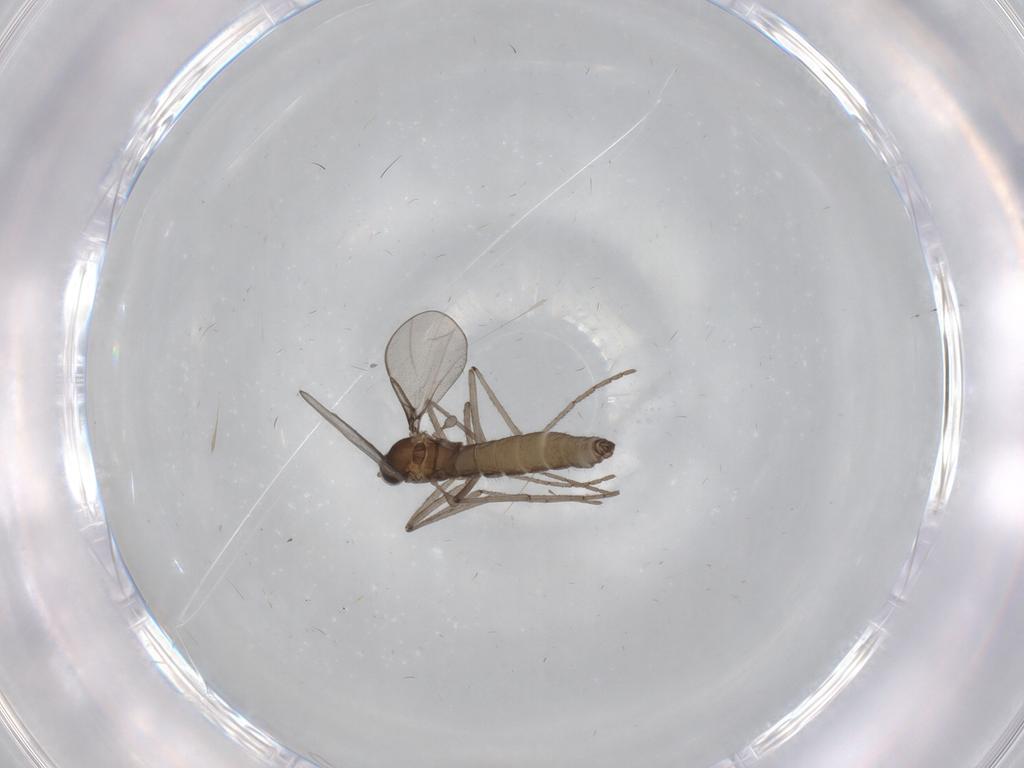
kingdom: Animalia
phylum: Arthropoda
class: Insecta
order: Diptera
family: Cecidomyiidae
